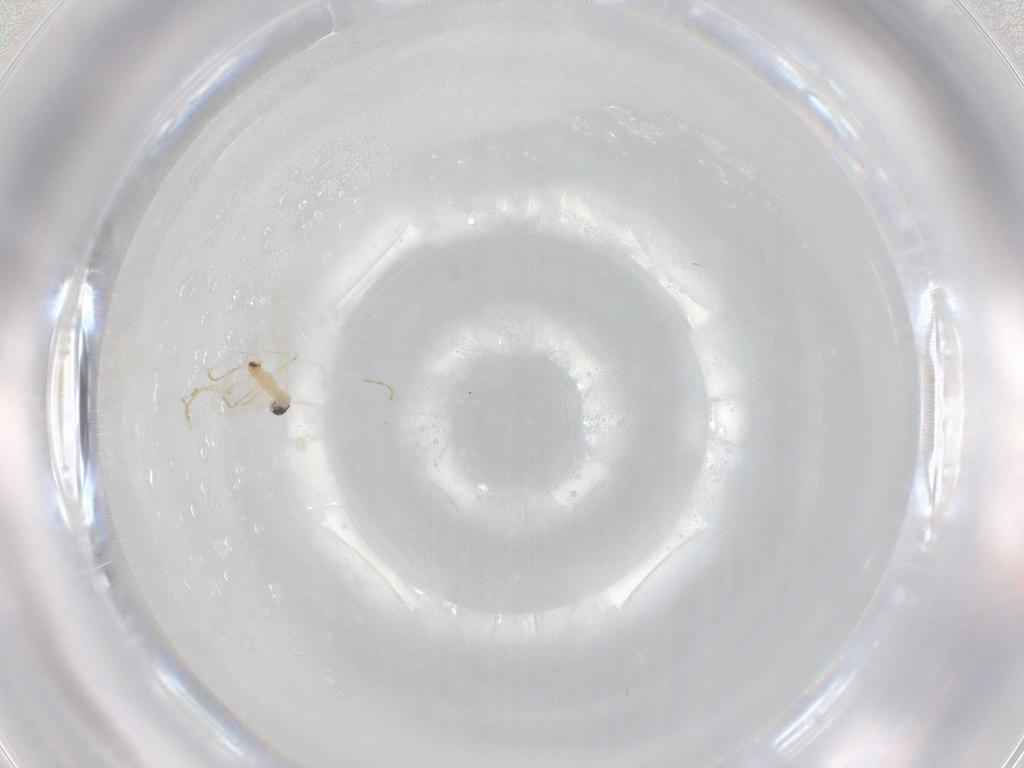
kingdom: Animalia
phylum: Arthropoda
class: Insecta
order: Diptera
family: Cecidomyiidae
